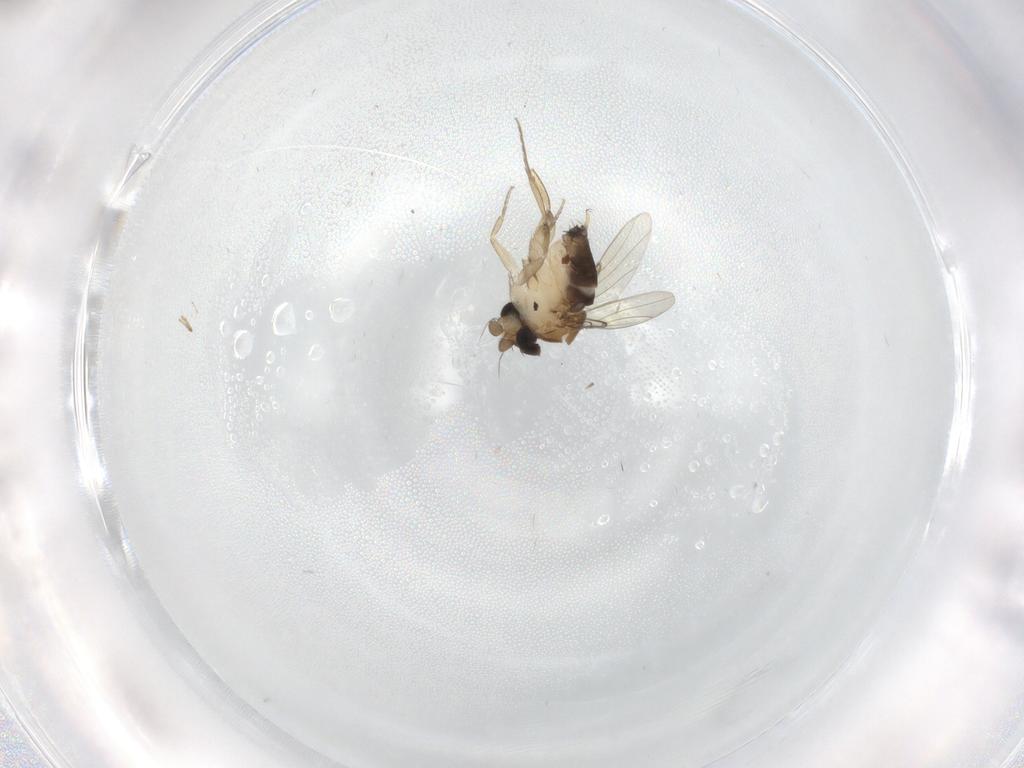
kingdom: Animalia
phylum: Arthropoda
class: Insecta
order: Diptera
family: Phoridae
